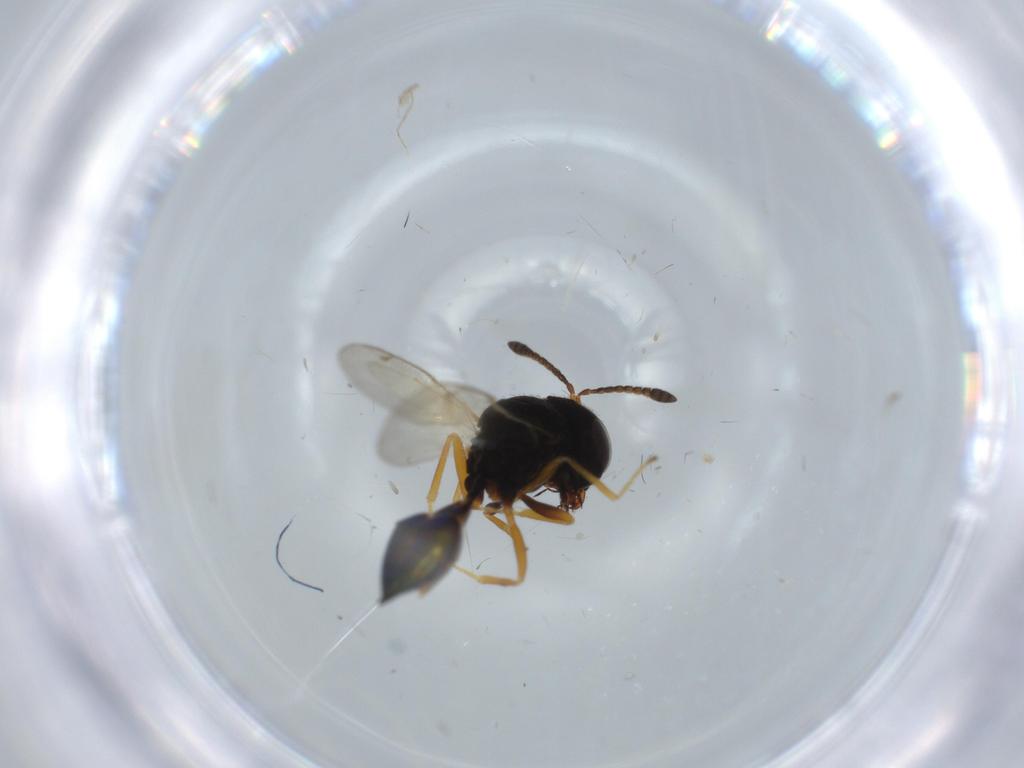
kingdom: Animalia
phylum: Arthropoda
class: Insecta
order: Hymenoptera
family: Pteromalidae
